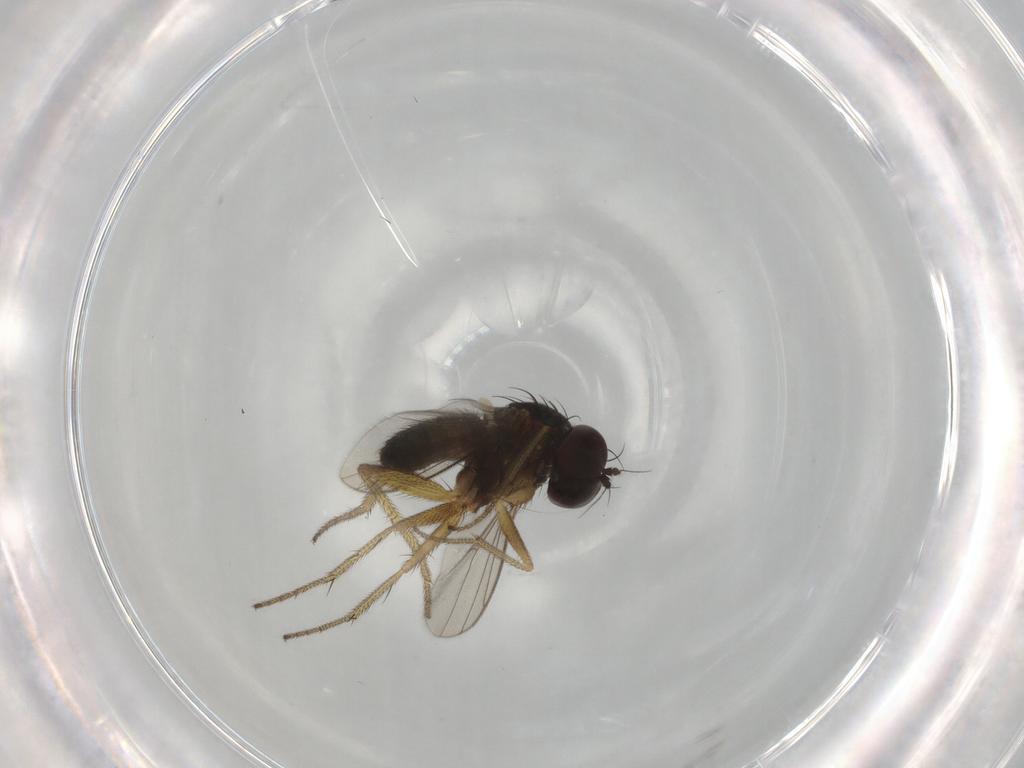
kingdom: Animalia
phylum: Arthropoda
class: Insecta
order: Diptera
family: Dolichopodidae
